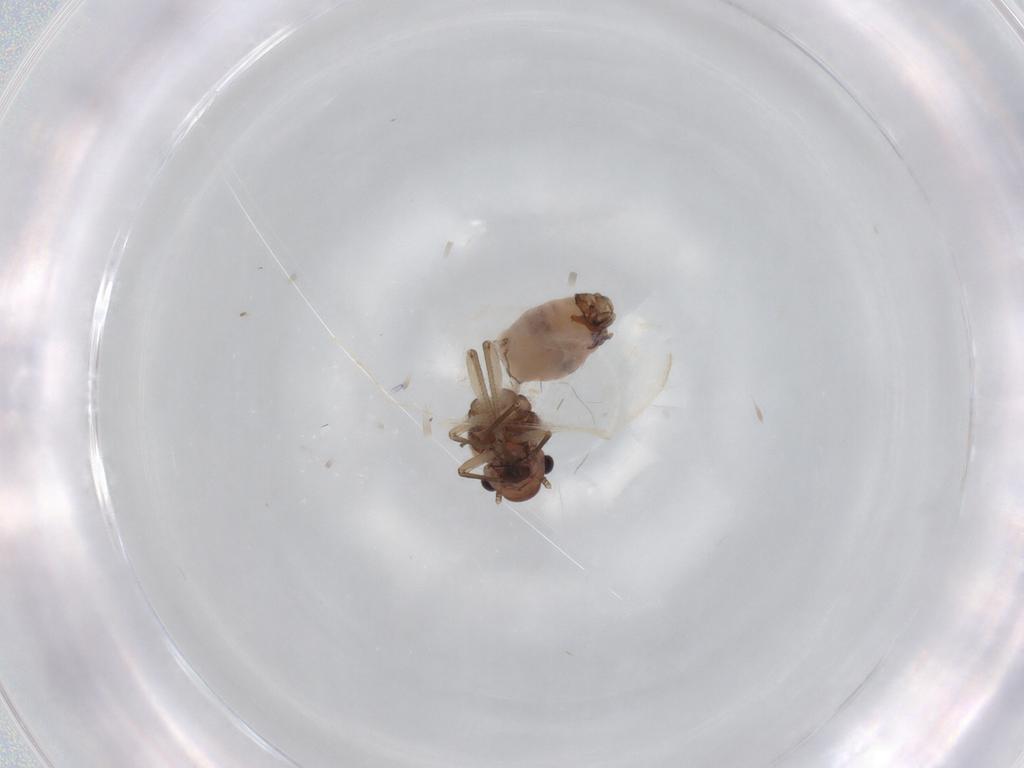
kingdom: Animalia
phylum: Arthropoda
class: Insecta
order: Psocodea
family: Peripsocidae
